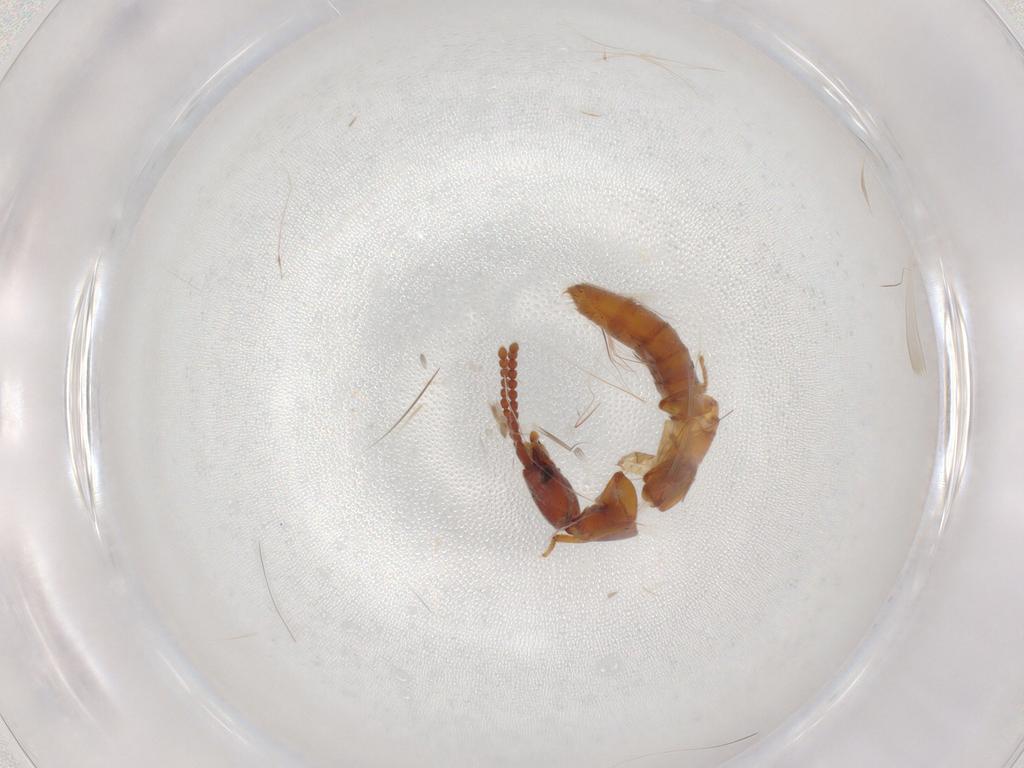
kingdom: Animalia
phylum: Arthropoda
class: Insecta
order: Coleoptera
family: Staphylinidae
